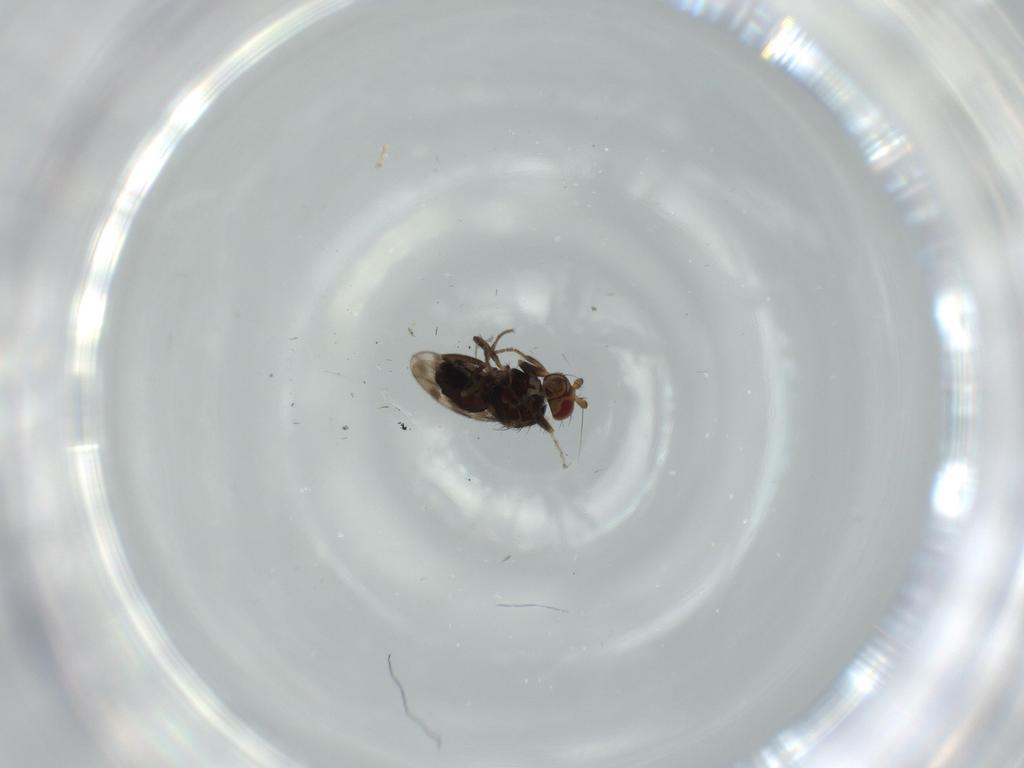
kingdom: Animalia
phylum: Arthropoda
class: Insecta
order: Diptera
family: Sphaeroceridae
